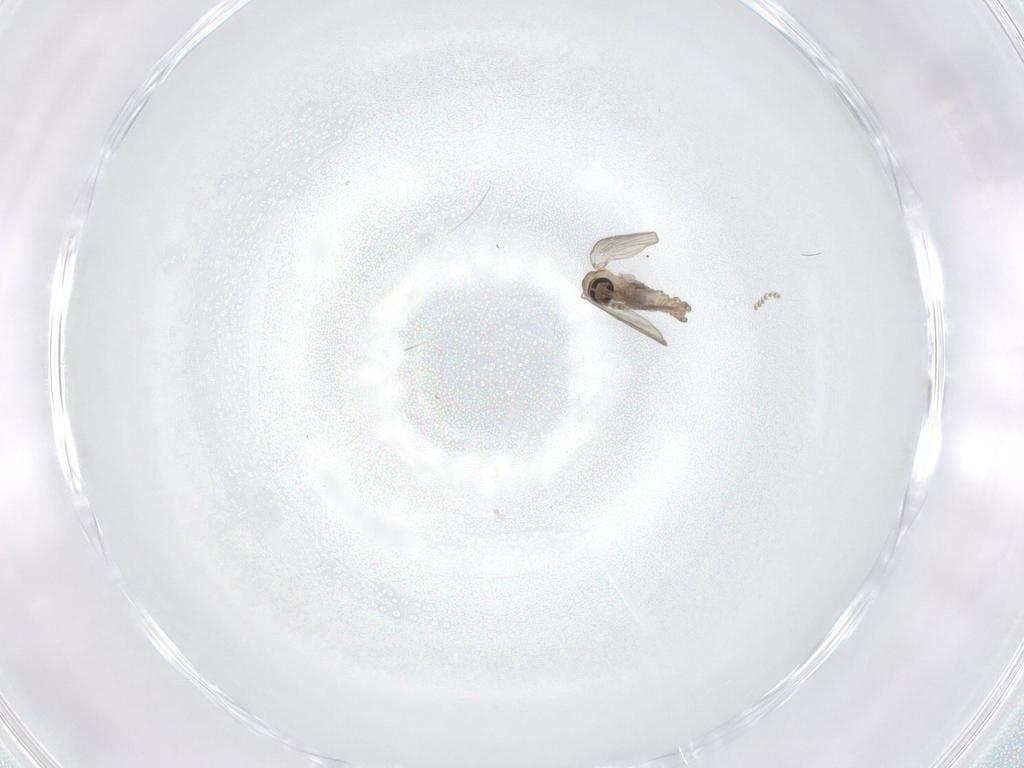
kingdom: Animalia
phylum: Arthropoda
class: Insecta
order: Diptera
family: Psychodidae
